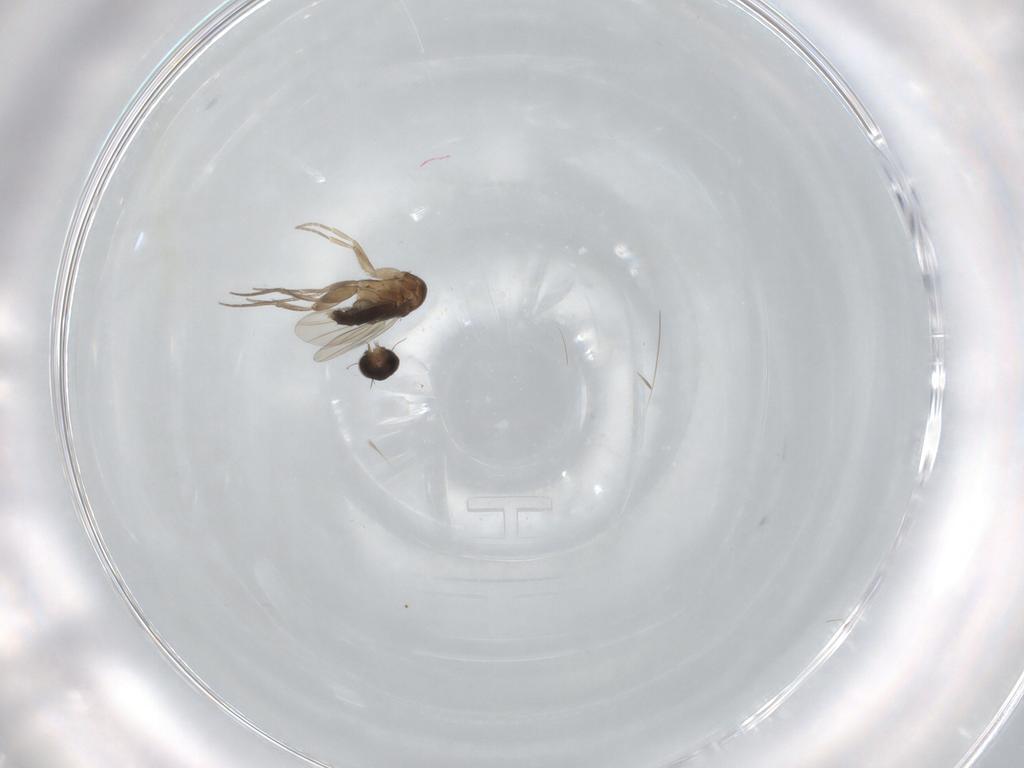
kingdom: Animalia
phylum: Arthropoda
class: Insecta
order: Diptera
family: Phoridae
